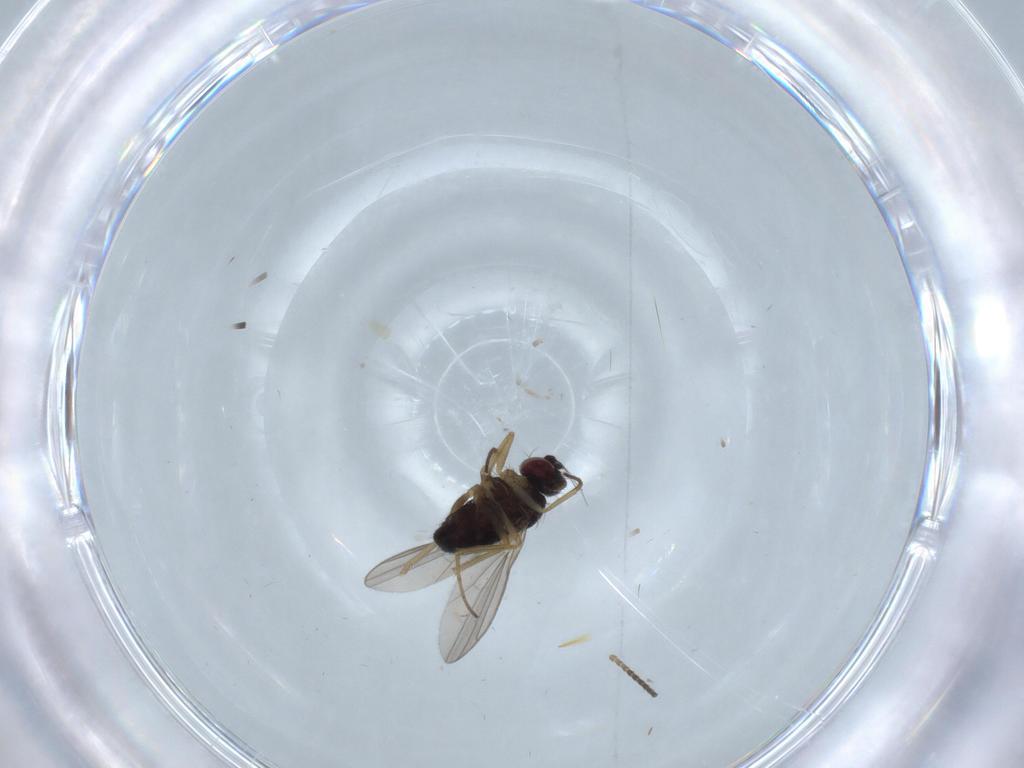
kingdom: Animalia
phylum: Arthropoda
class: Insecta
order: Diptera
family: Dolichopodidae
